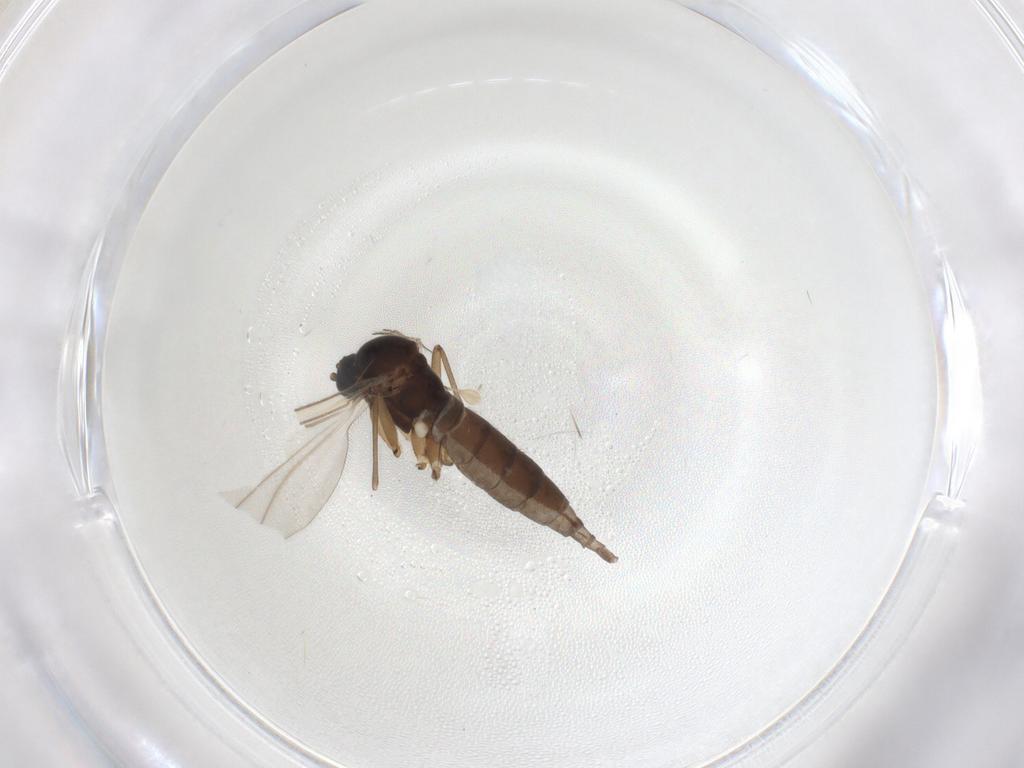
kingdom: Animalia
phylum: Arthropoda
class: Insecta
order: Diptera
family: Sciaridae
